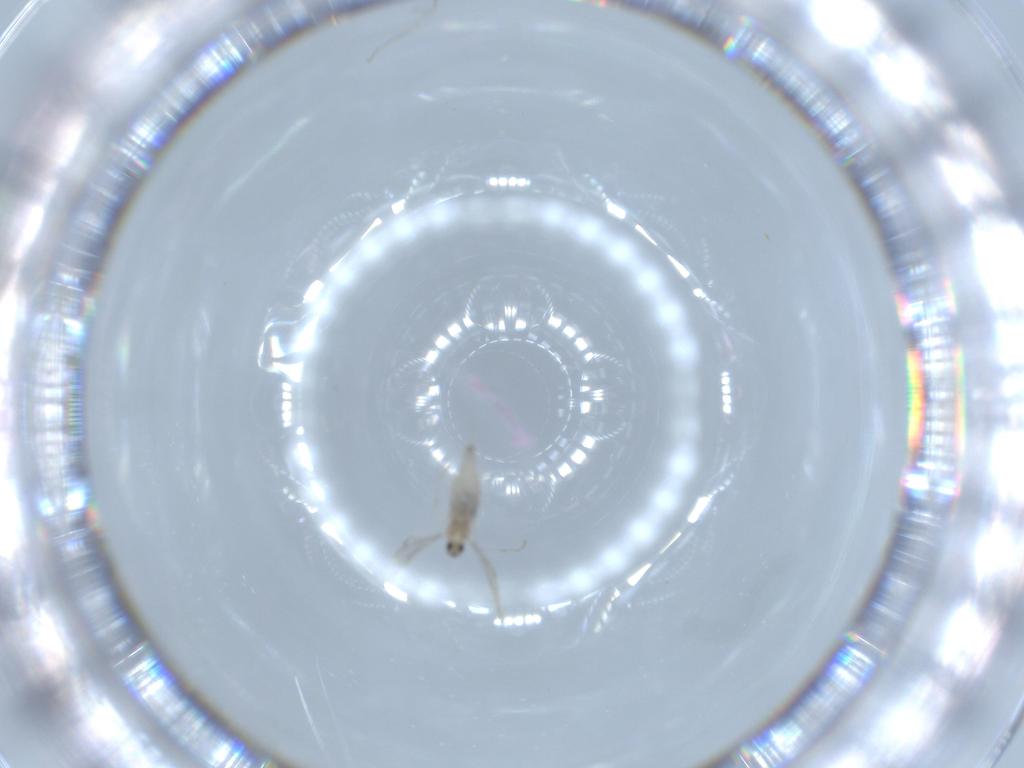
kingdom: Animalia
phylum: Arthropoda
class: Insecta
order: Diptera
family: Cecidomyiidae
